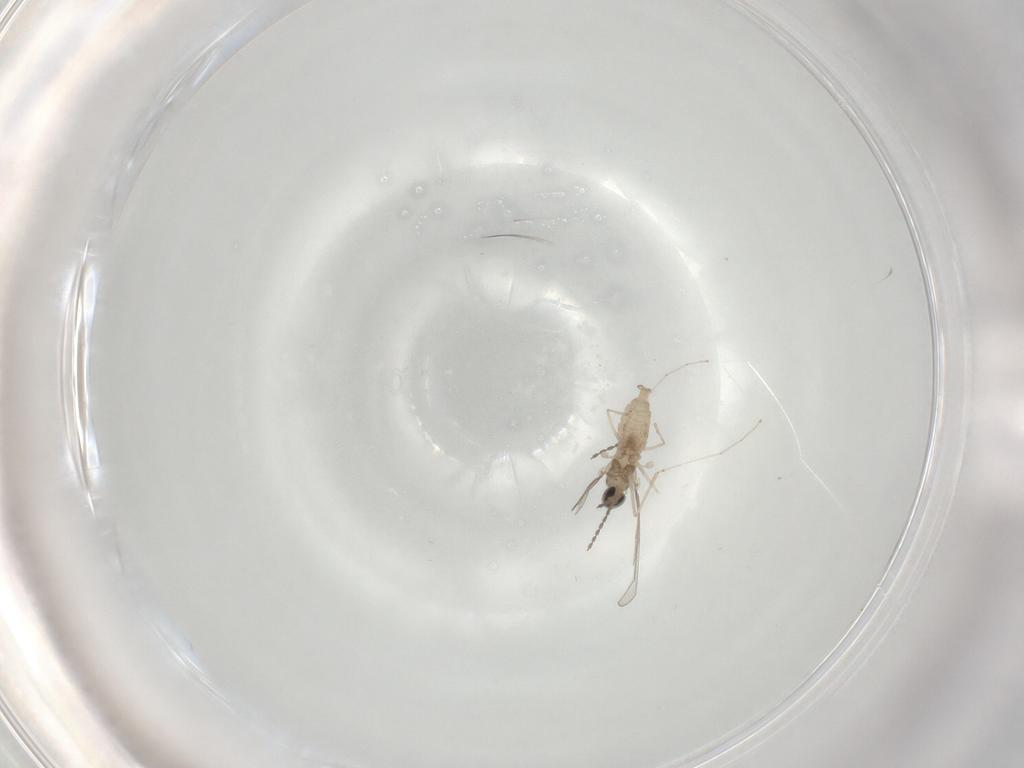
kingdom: Animalia
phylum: Arthropoda
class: Insecta
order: Diptera
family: Cecidomyiidae
